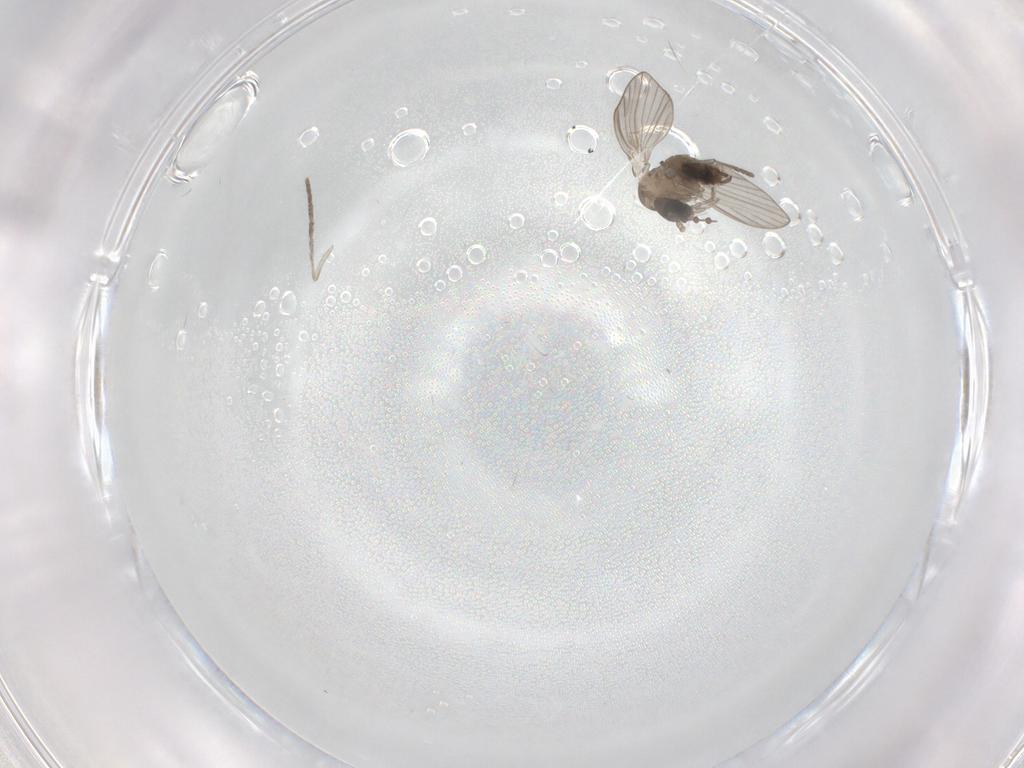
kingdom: Animalia
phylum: Arthropoda
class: Insecta
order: Diptera
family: Psychodidae
